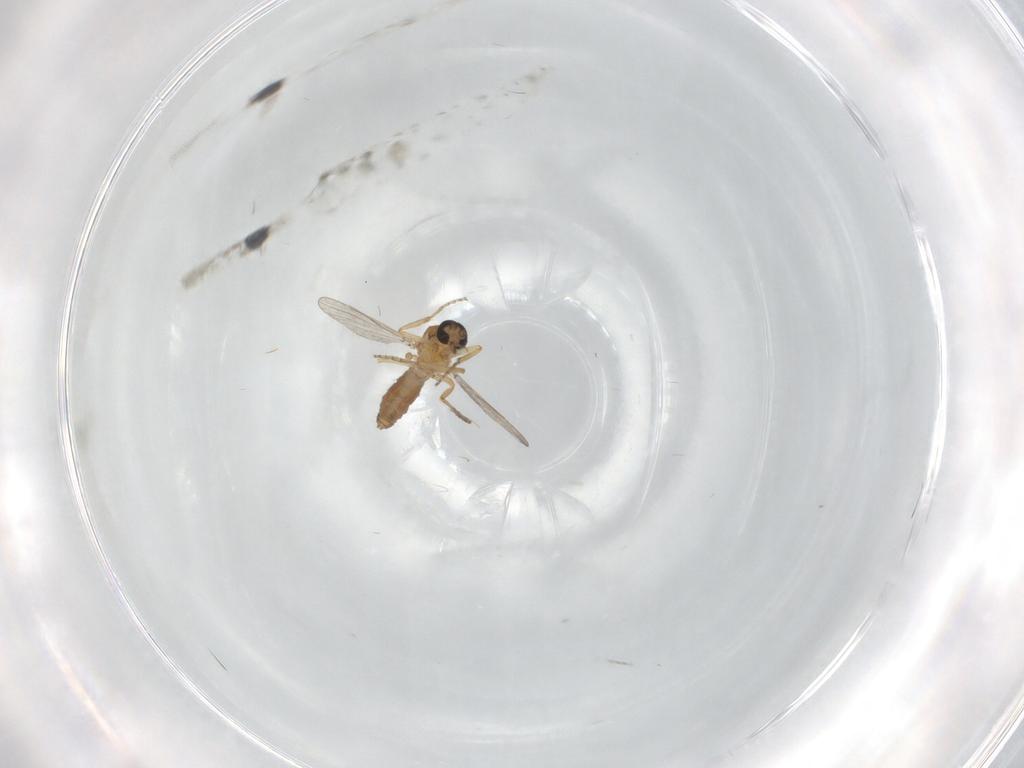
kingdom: Animalia
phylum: Arthropoda
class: Insecta
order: Diptera
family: Ceratopogonidae
